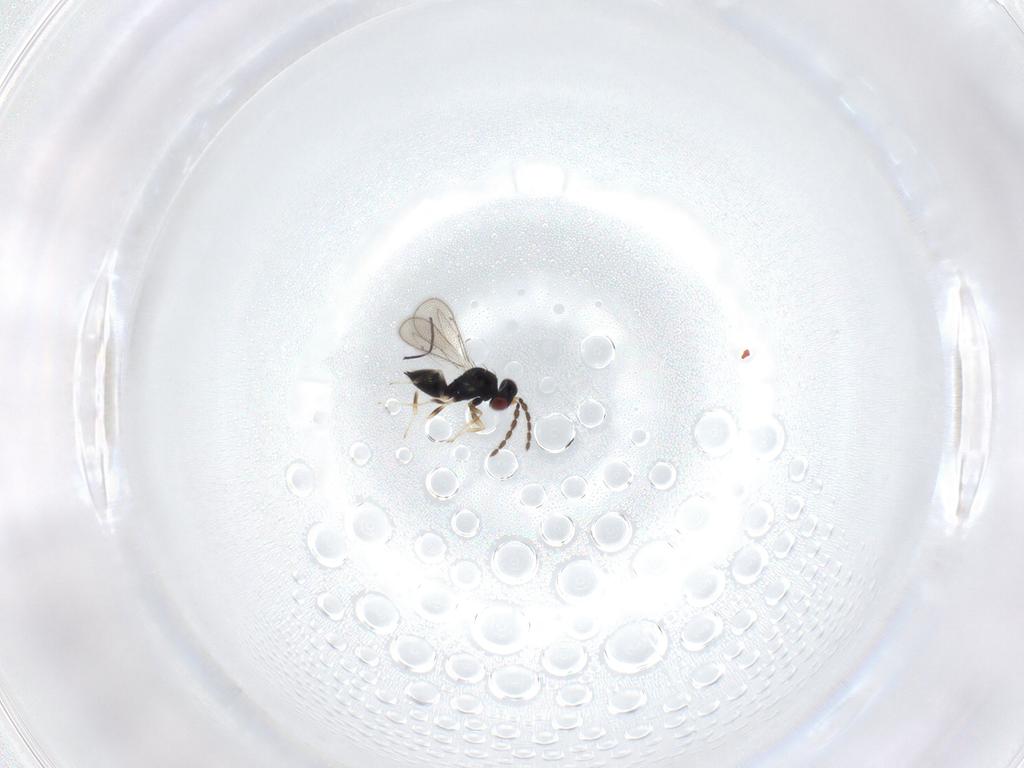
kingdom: Animalia
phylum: Arthropoda
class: Insecta
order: Hymenoptera
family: Eulophidae
